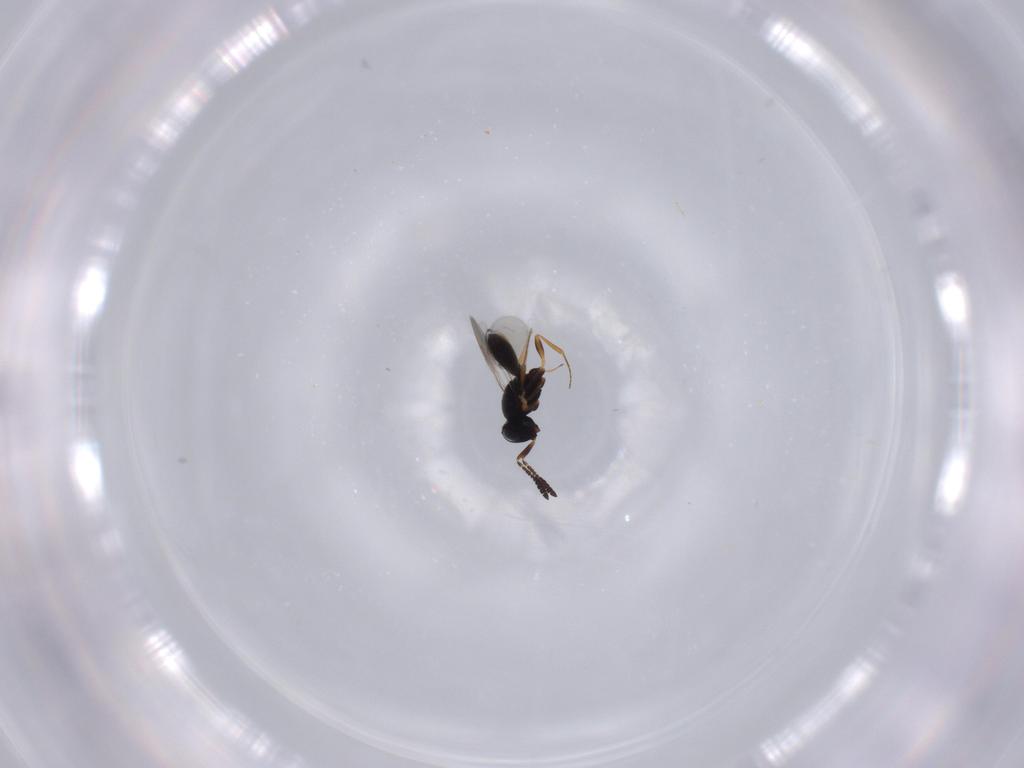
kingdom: Animalia
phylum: Arthropoda
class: Insecta
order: Hymenoptera
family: Scelionidae
